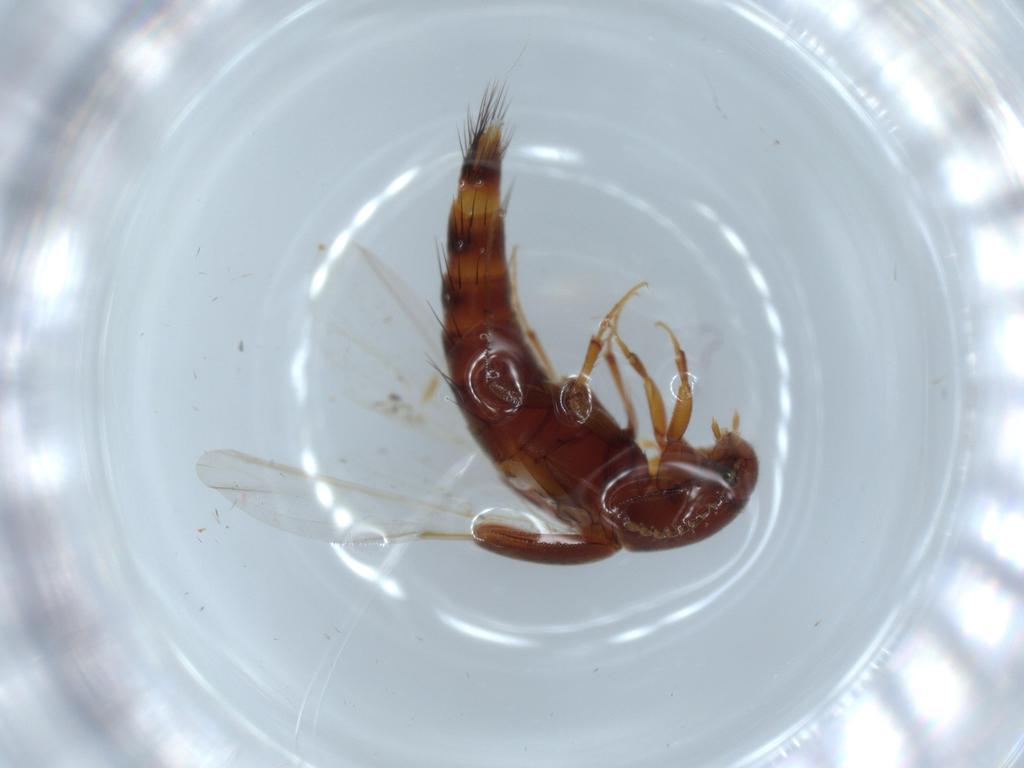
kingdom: Animalia
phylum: Arthropoda
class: Insecta
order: Coleoptera
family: Staphylinidae
